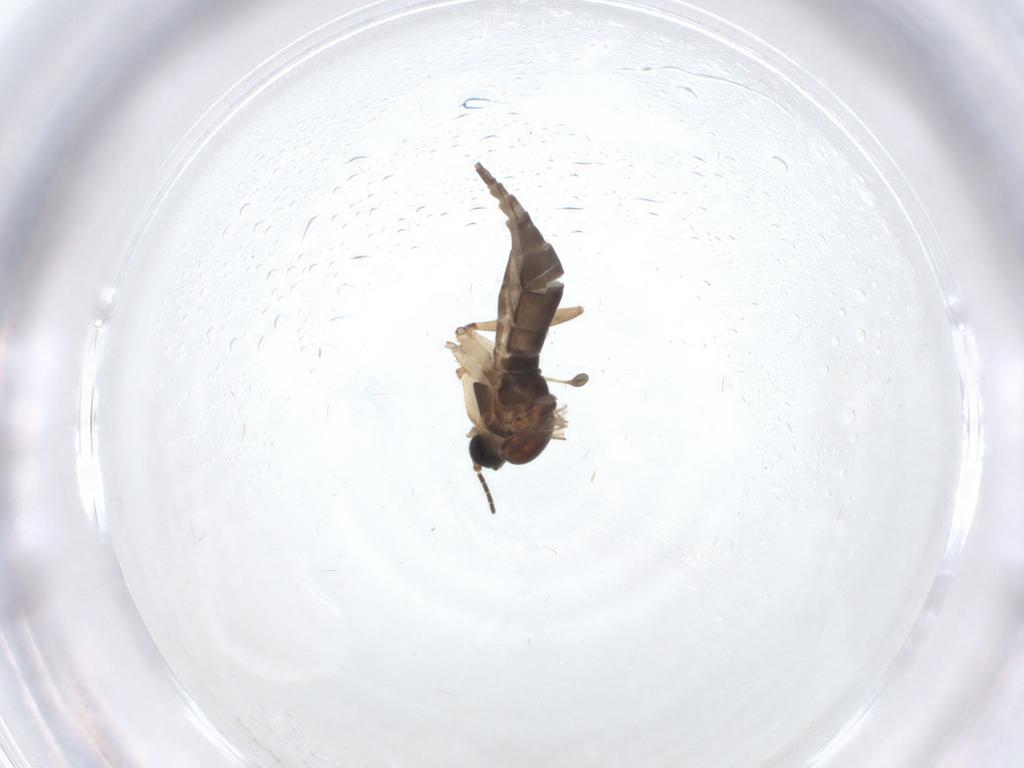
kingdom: Animalia
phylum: Arthropoda
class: Insecta
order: Diptera
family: Sciaridae
